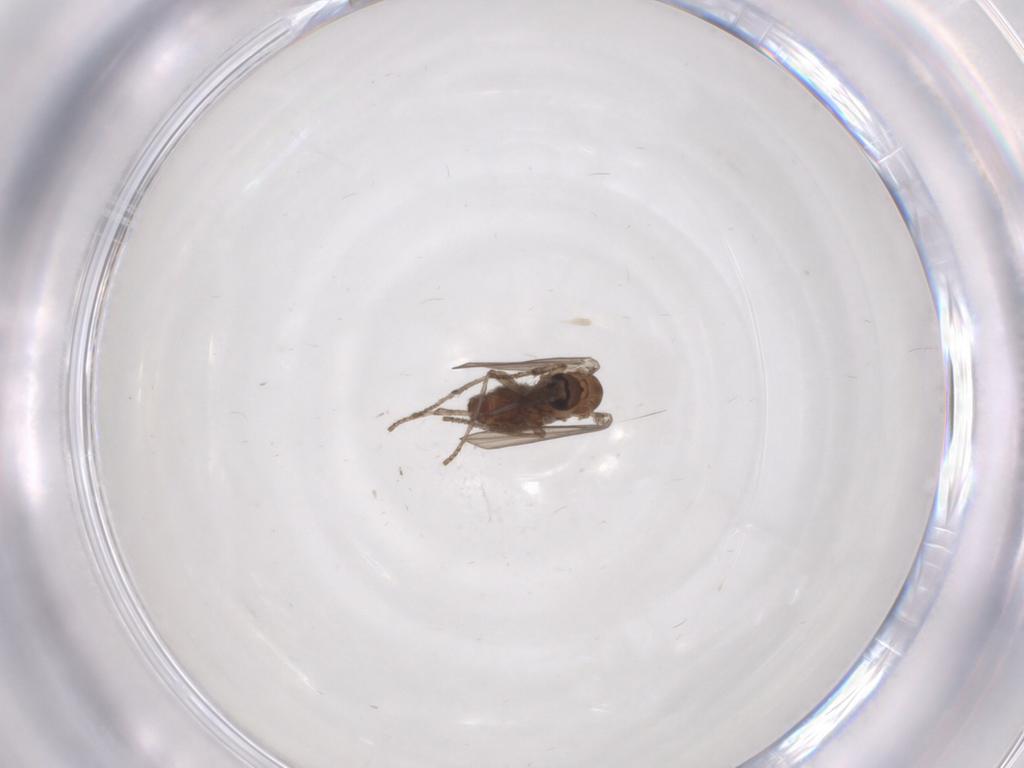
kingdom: Animalia
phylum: Arthropoda
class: Insecta
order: Diptera
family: Psychodidae
